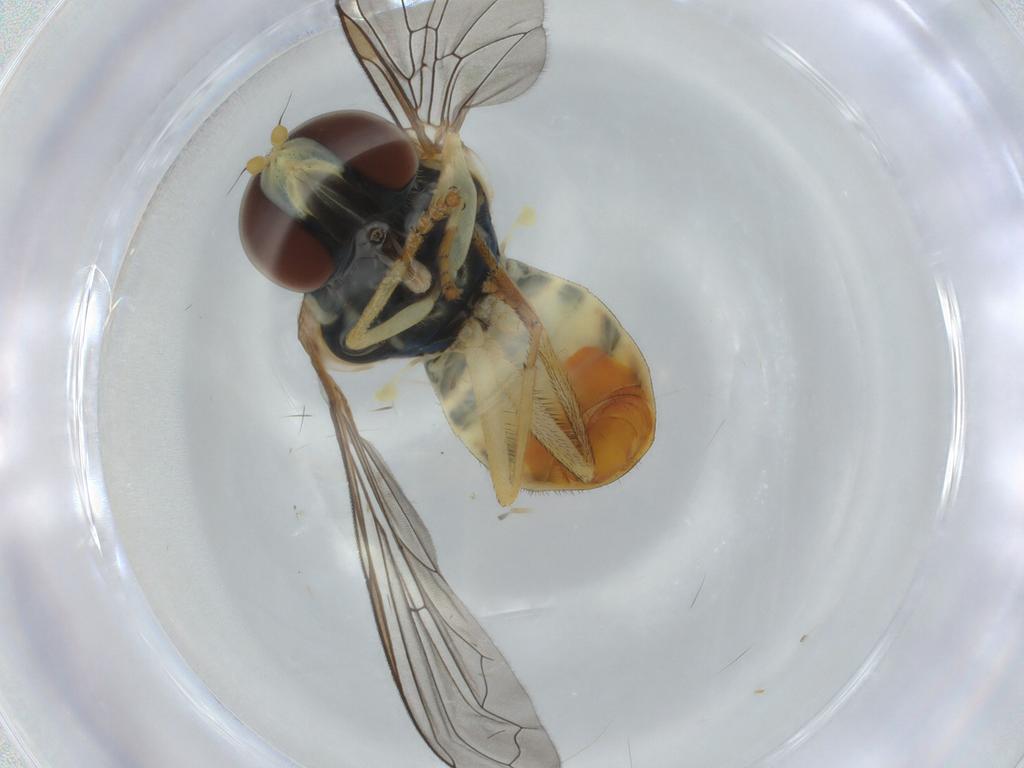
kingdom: Animalia
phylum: Arthropoda
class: Insecta
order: Diptera
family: Syrphidae
